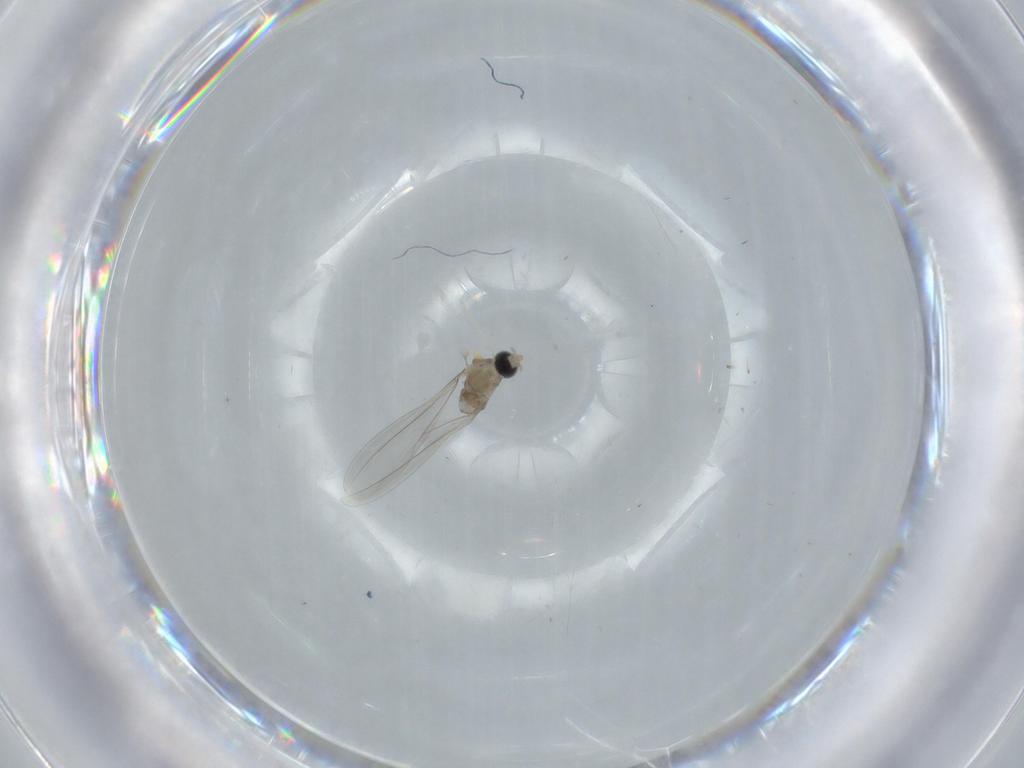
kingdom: Animalia
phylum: Arthropoda
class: Insecta
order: Diptera
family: Cecidomyiidae
